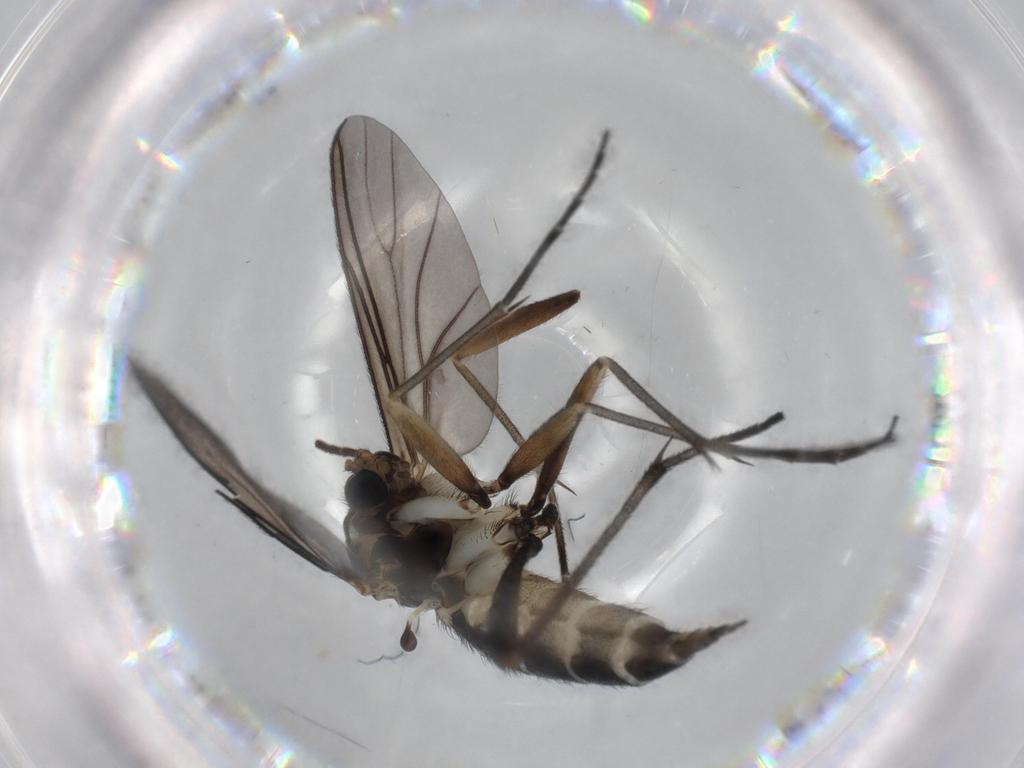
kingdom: Animalia
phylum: Arthropoda
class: Insecta
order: Diptera
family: Sciaridae
